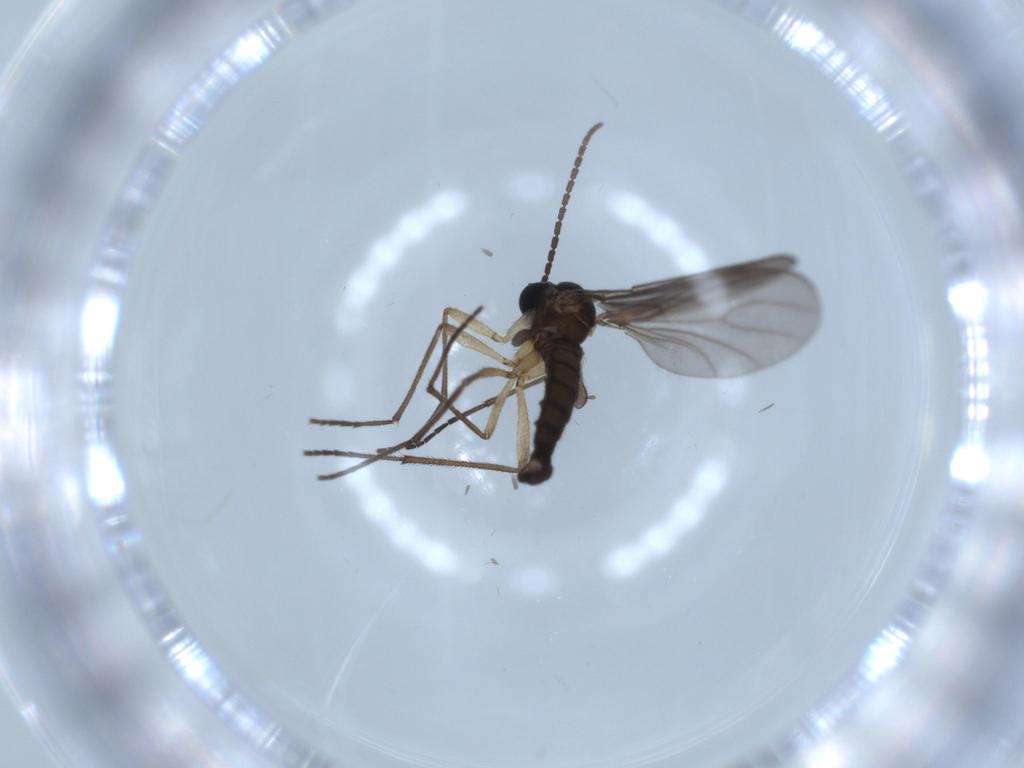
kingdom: Animalia
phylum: Arthropoda
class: Insecta
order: Diptera
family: Sciaridae
